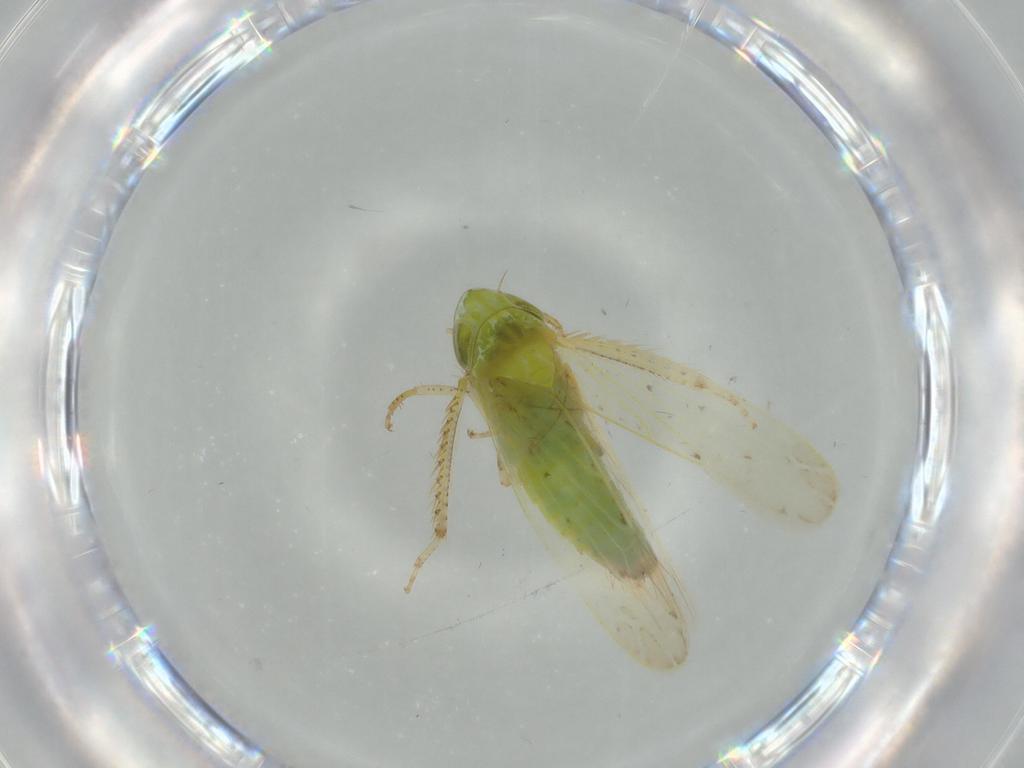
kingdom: Animalia
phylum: Arthropoda
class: Insecta
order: Hemiptera
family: Cicadellidae
